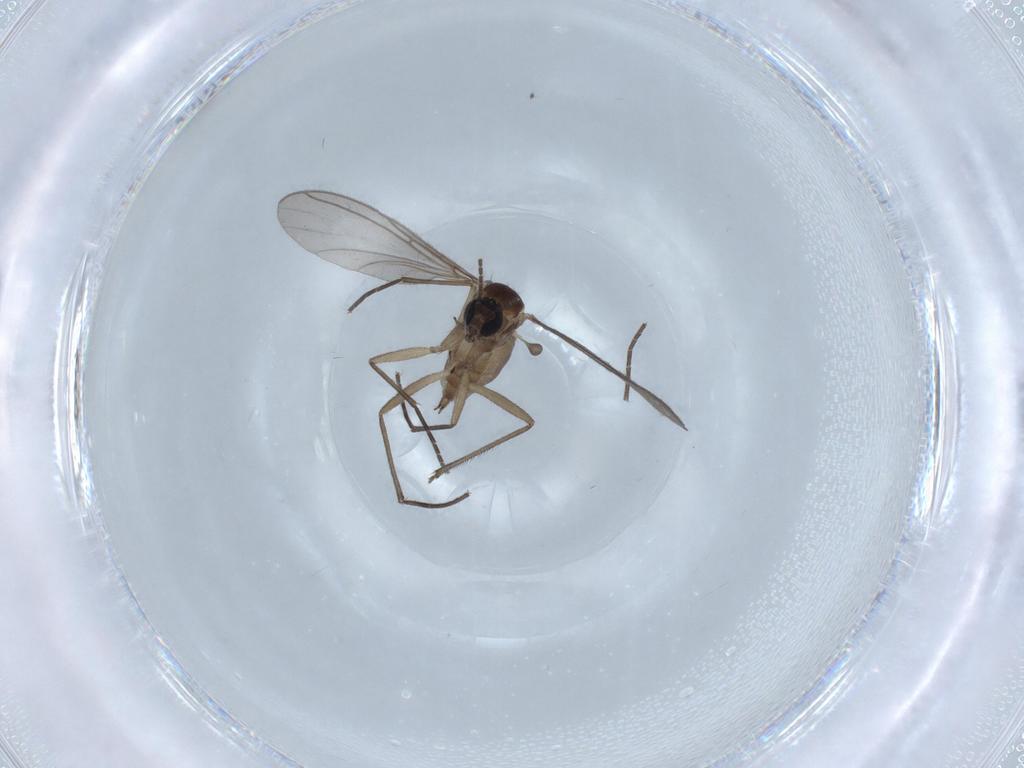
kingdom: Animalia
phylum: Arthropoda
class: Insecta
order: Diptera
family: Sciaridae
